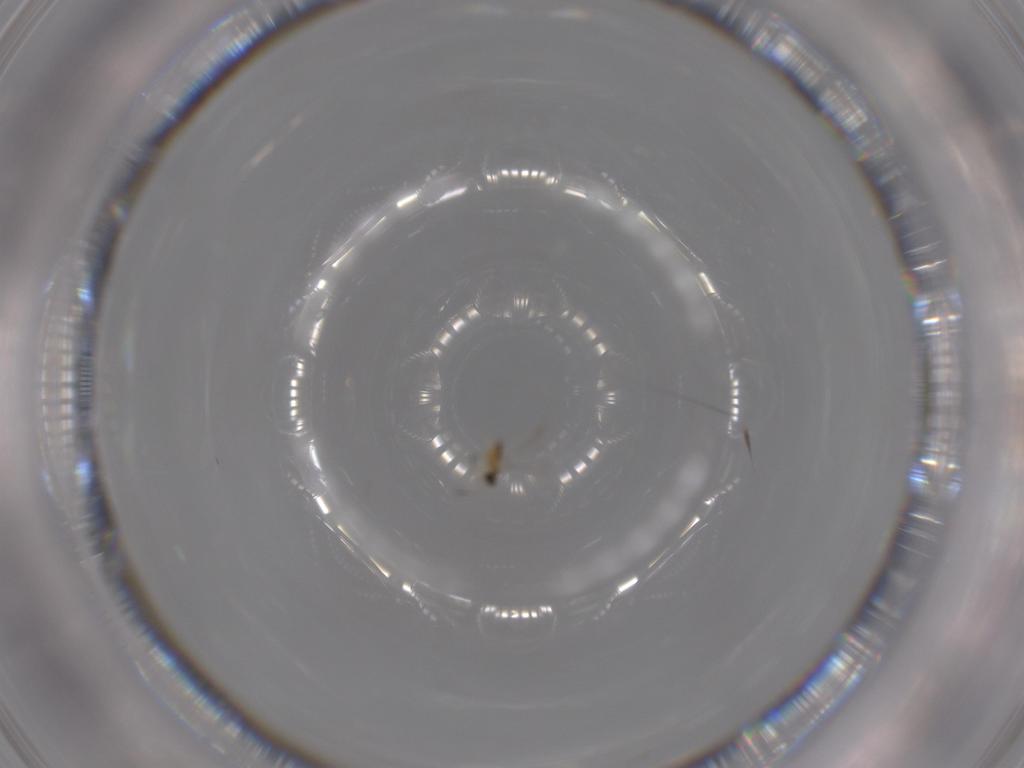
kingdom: Animalia
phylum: Arthropoda
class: Insecta
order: Hymenoptera
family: Mymaridae
